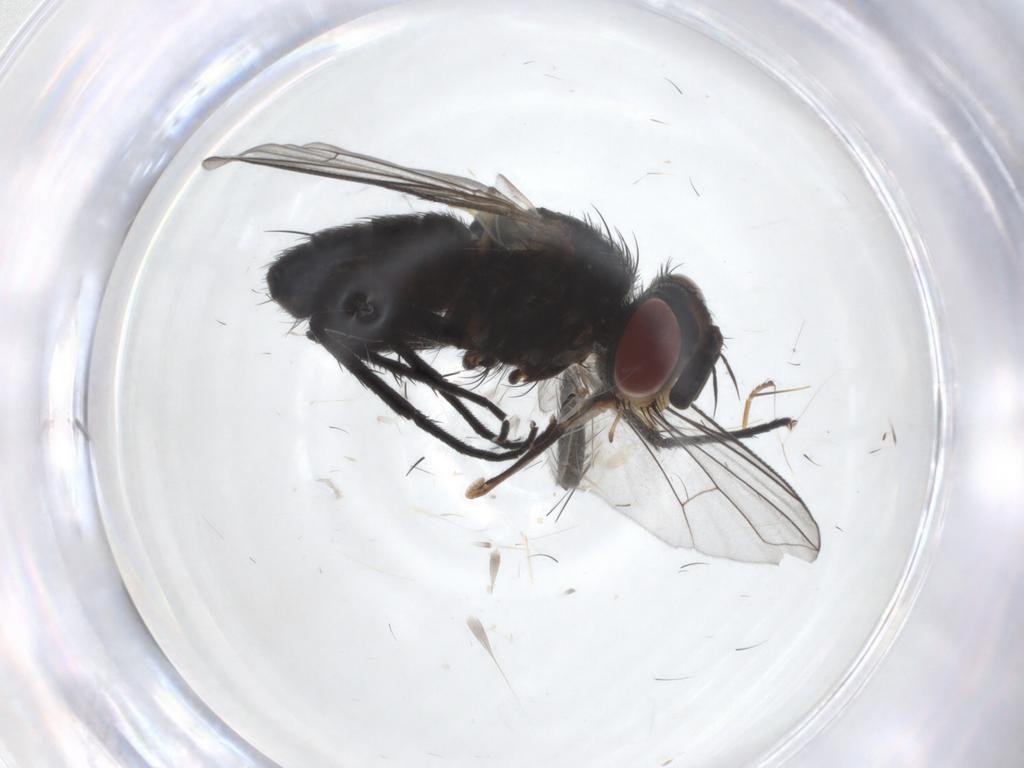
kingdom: Animalia
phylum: Arthropoda
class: Insecta
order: Diptera
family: Tachinidae
